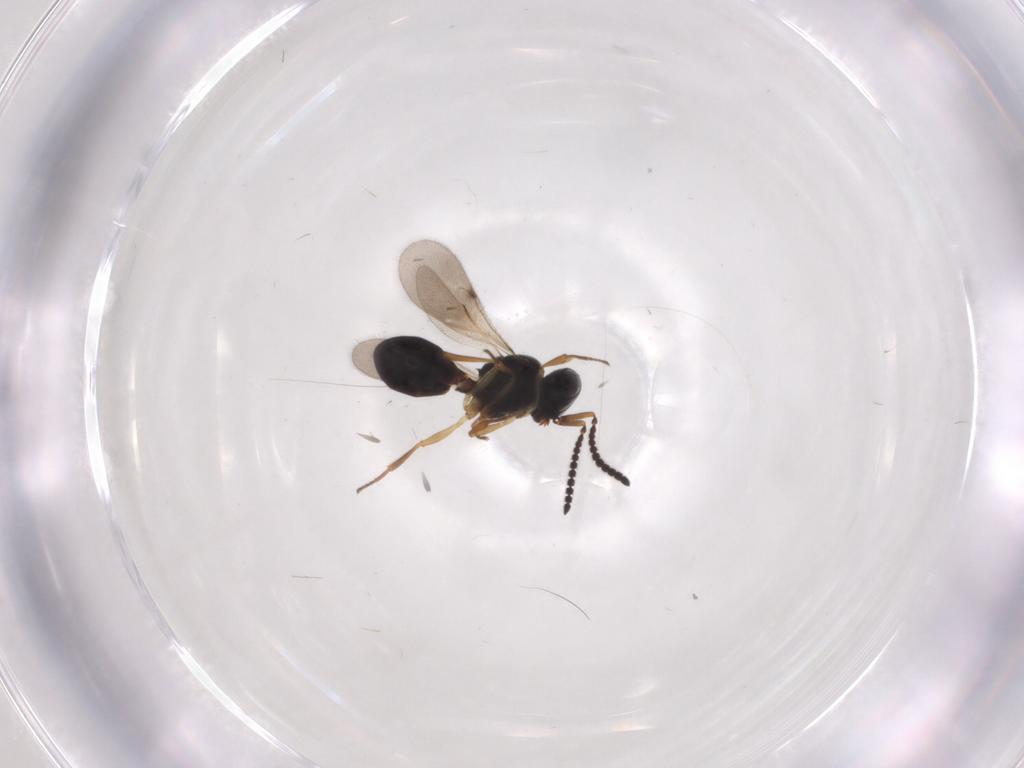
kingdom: Animalia
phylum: Arthropoda
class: Insecta
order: Hymenoptera
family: Scelionidae
